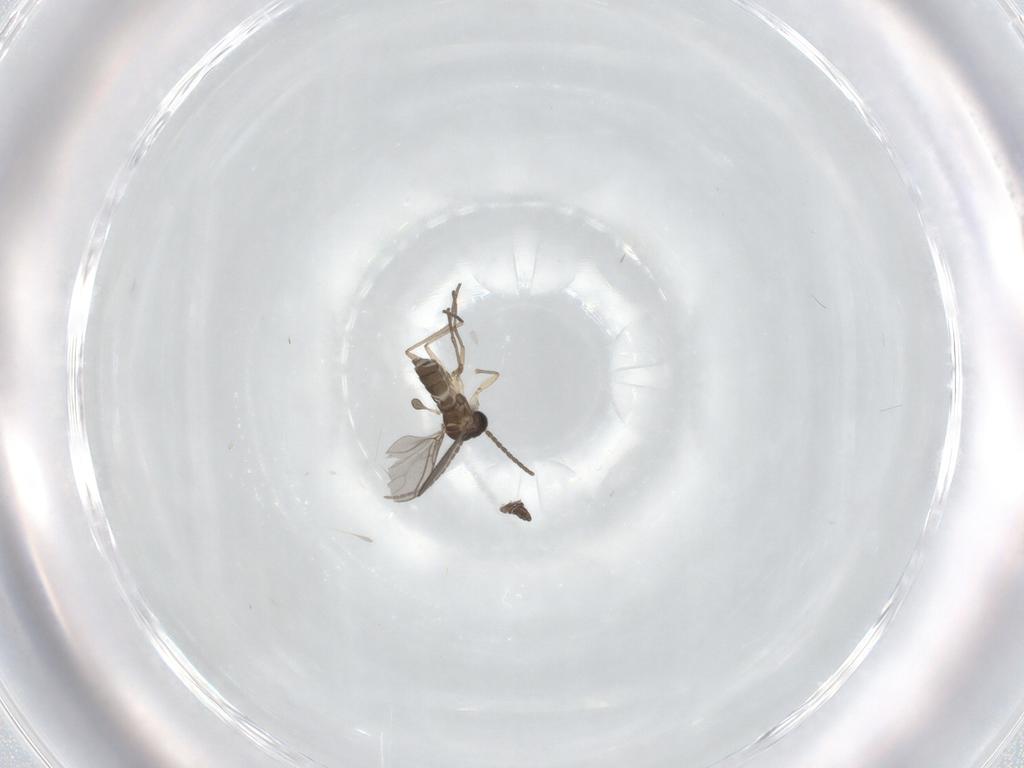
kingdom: Animalia
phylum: Arthropoda
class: Insecta
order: Diptera
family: Sciaridae
